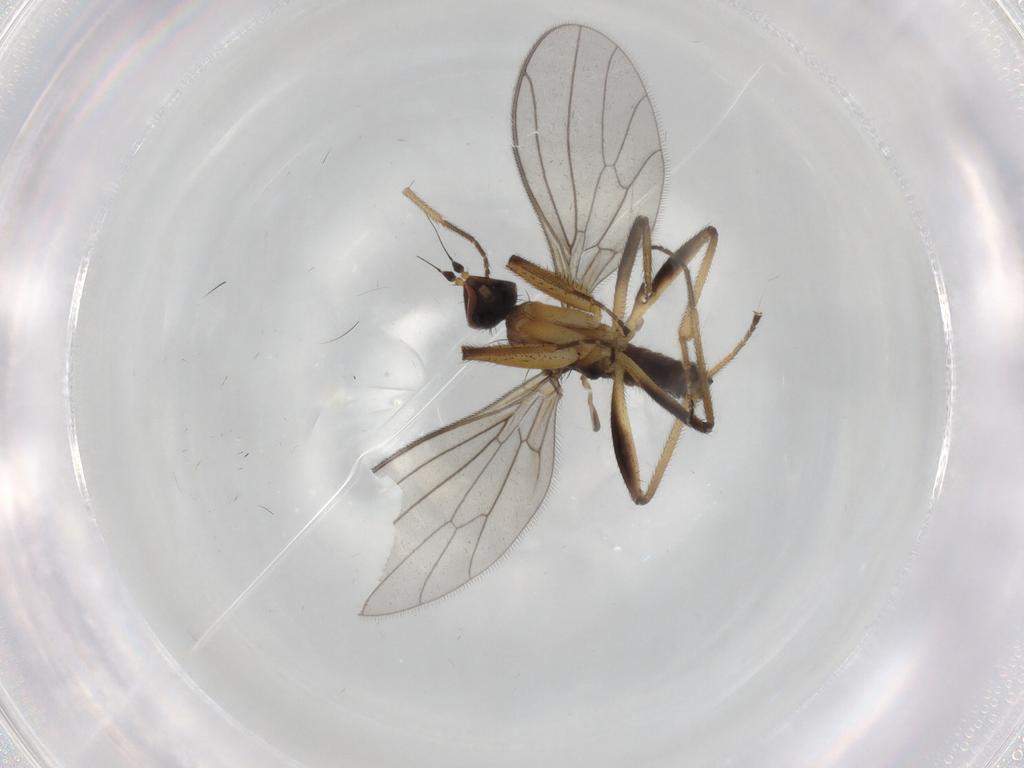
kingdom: Animalia
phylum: Arthropoda
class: Insecta
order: Diptera
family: Empididae
